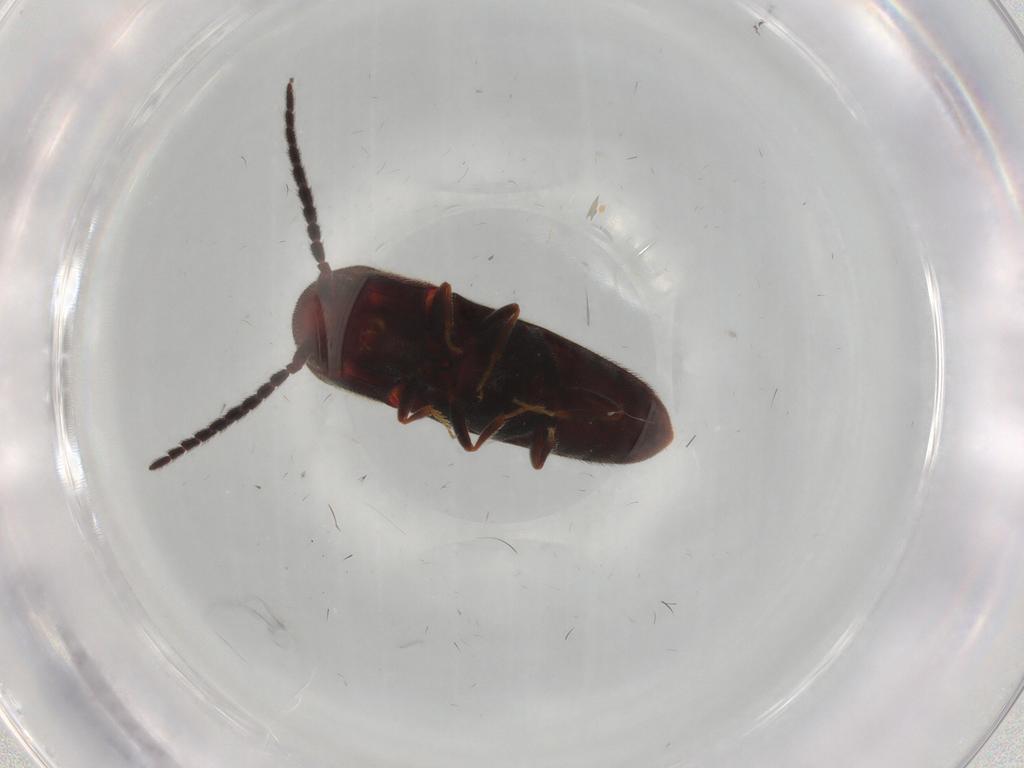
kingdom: Animalia
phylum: Arthropoda
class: Insecta
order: Coleoptera
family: Eucnemidae
